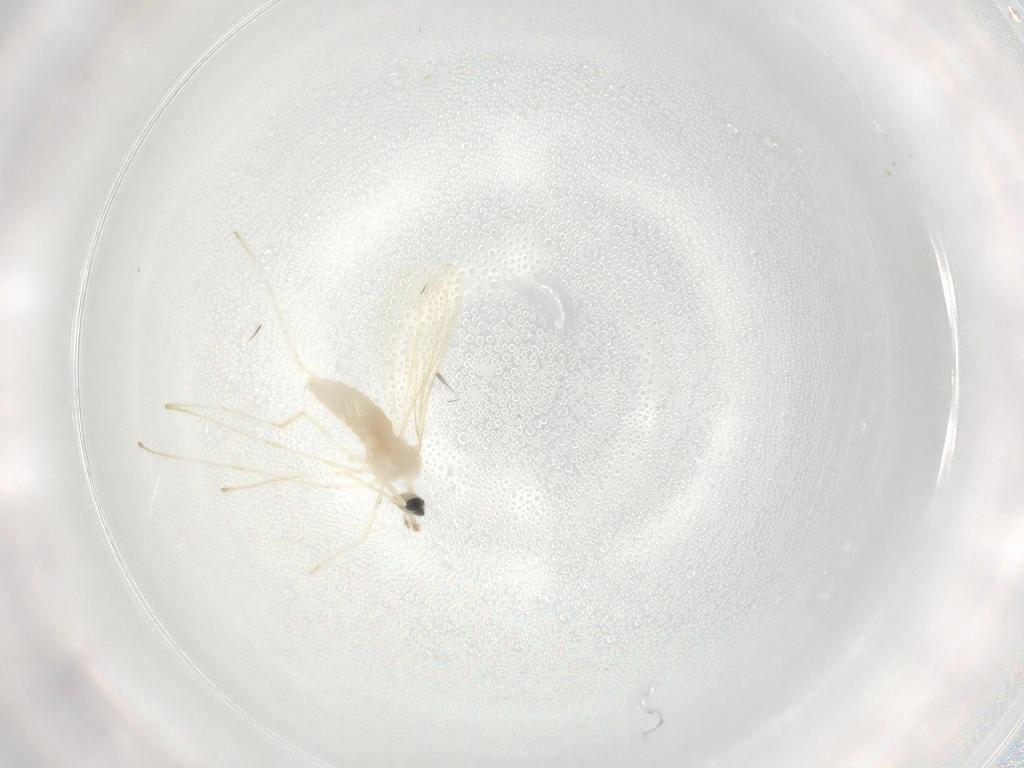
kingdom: Animalia
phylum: Arthropoda
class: Insecta
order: Diptera
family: Cecidomyiidae
